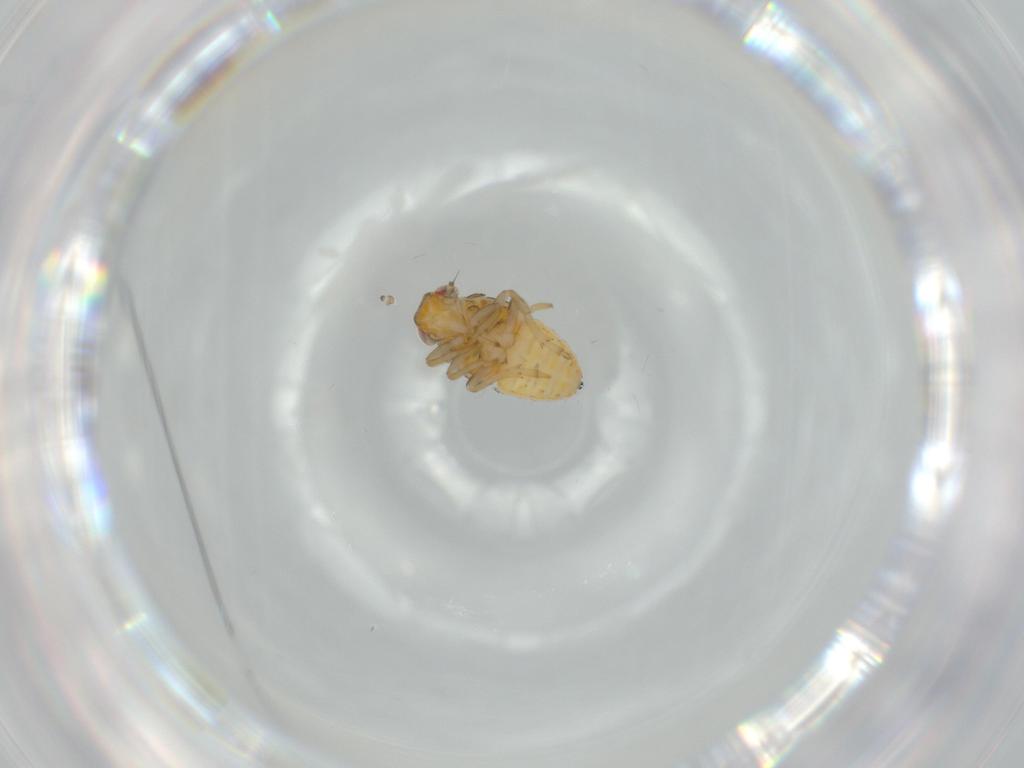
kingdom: Animalia
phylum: Arthropoda
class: Insecta
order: Hemiptera
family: Issidae
